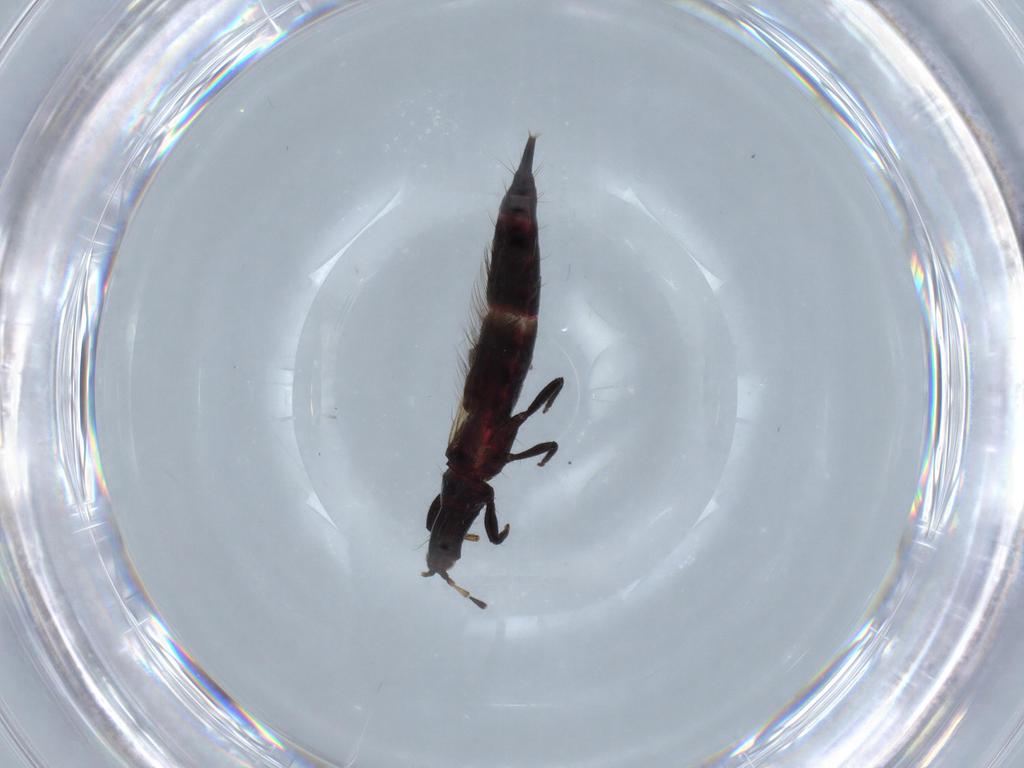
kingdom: Animalia
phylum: Arthropoda
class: Insecta
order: Thysanoptera
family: Phlaeothripidae
